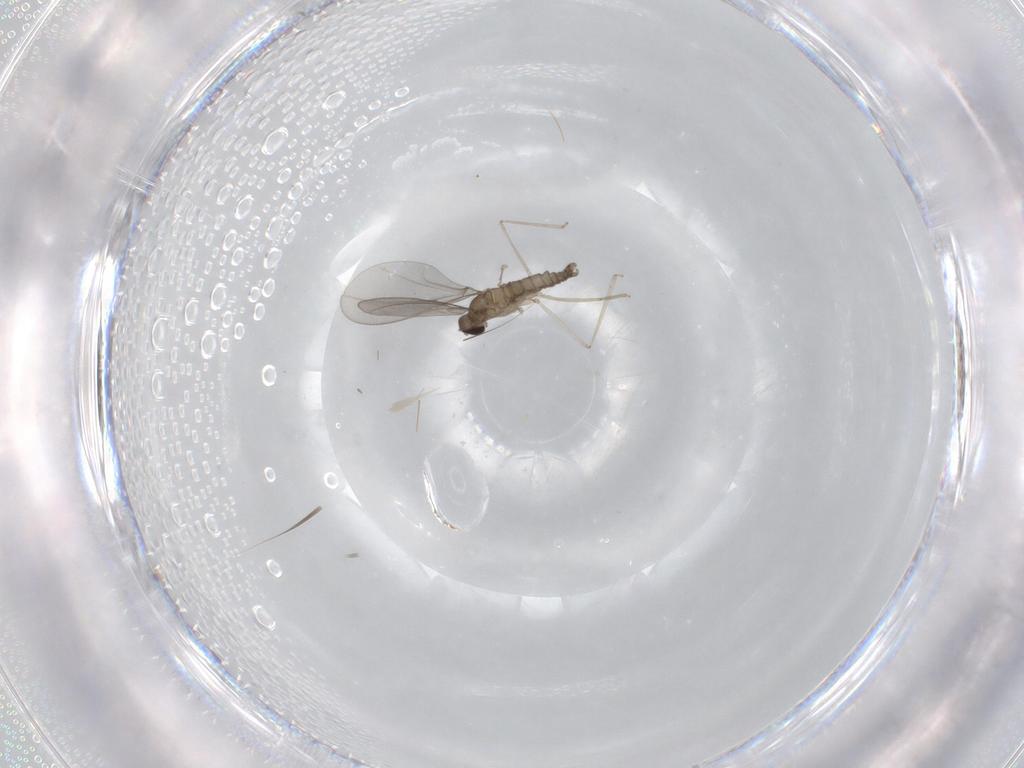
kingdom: Animalia
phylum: Arthropoda
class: Insecta
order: Diptera
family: Cecidomyiidae
